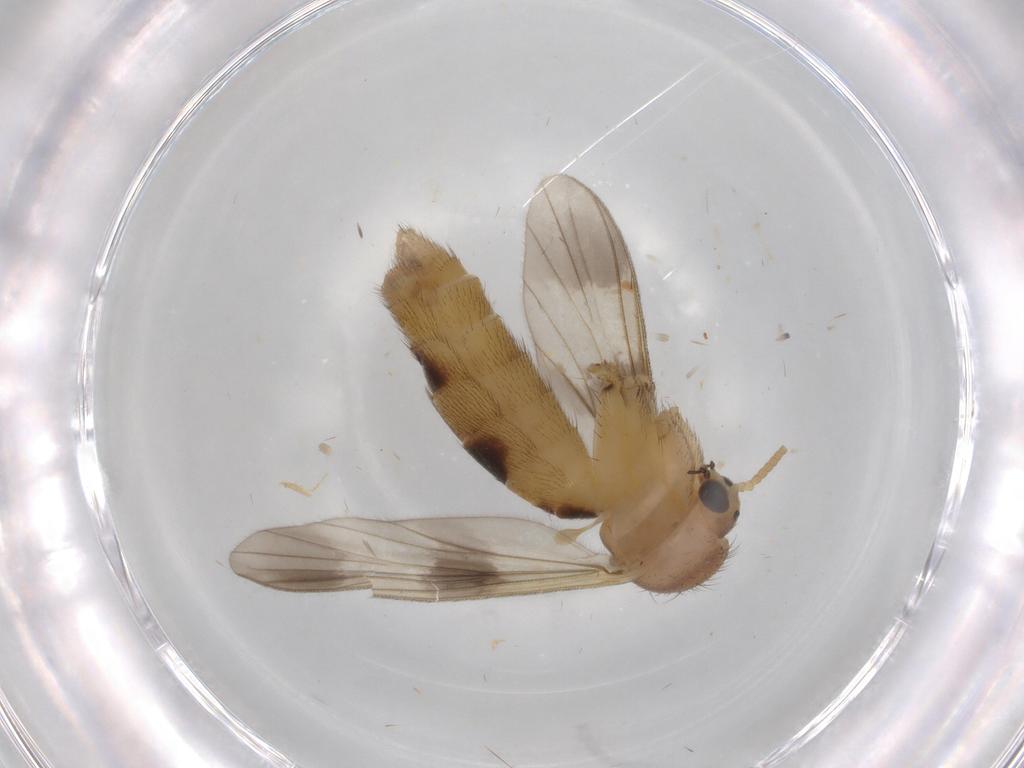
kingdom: Animalia
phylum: Arthropoda
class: Insecta
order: Diptera
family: Mycetophilidae
